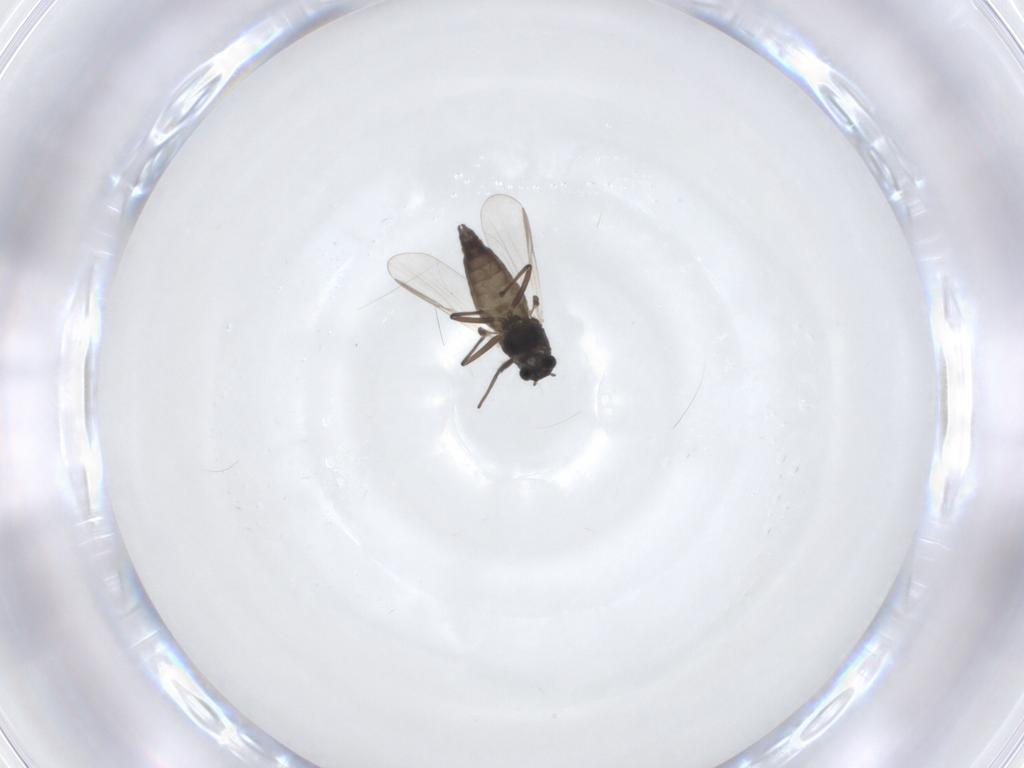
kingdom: Animalia
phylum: Arthropoda
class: Insecta
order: Diptera
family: Chironomidae
